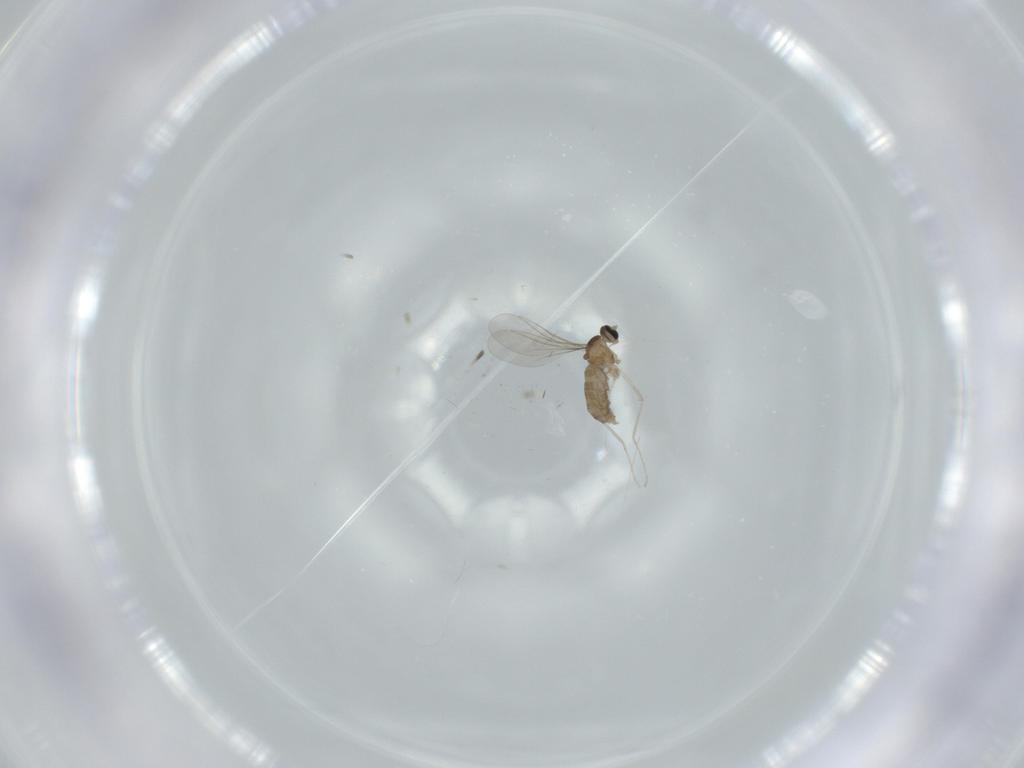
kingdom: Animalia
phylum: Arthropoda
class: Insecta
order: Diptera
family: Cecidomyiidae
